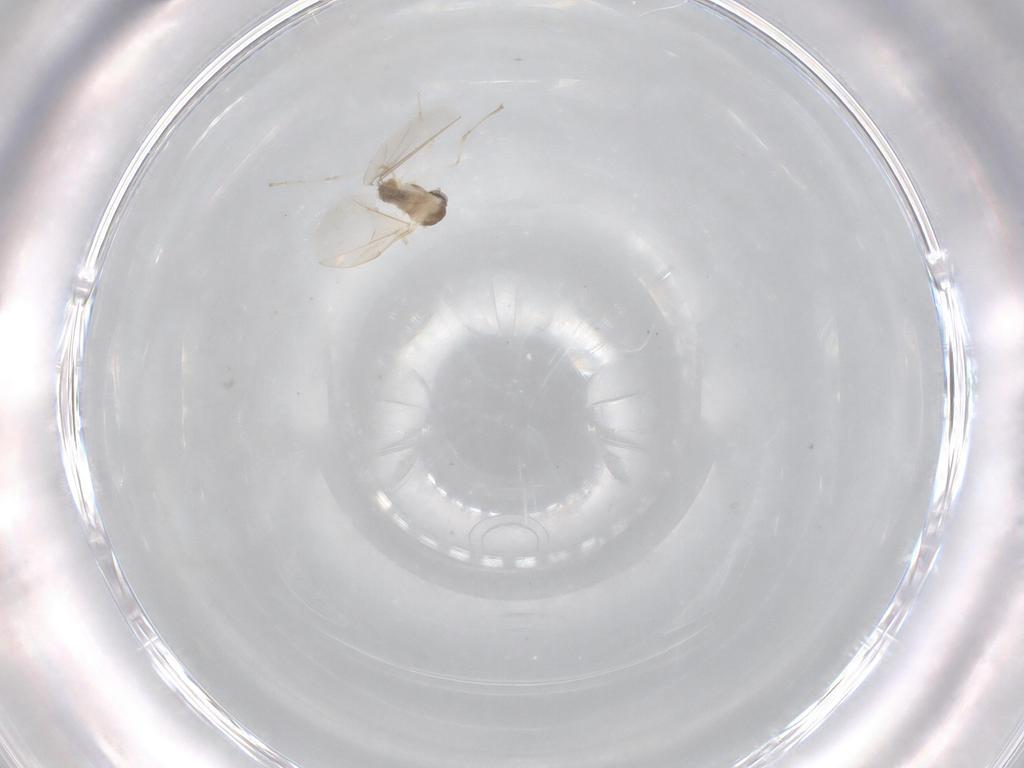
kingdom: Animalia
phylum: Arthropoda
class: Insecta
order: Diptera
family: Cecidomyiidae
